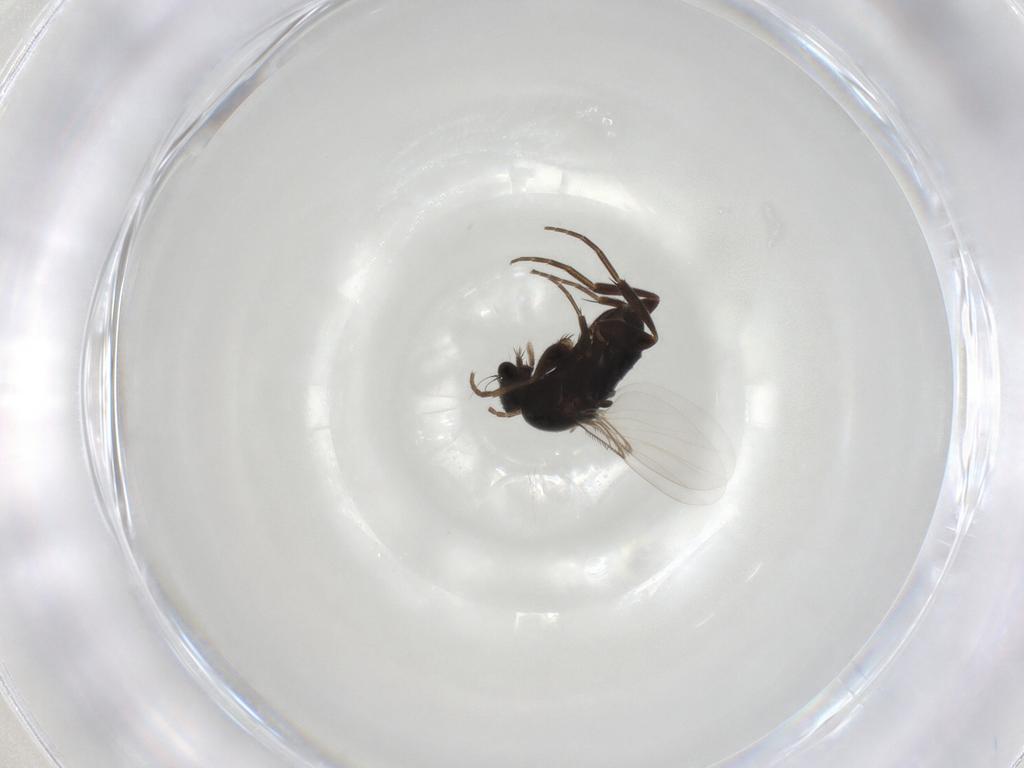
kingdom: Animalia
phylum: Arthropoda
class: Insecta
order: Diptera
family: Phoridae
